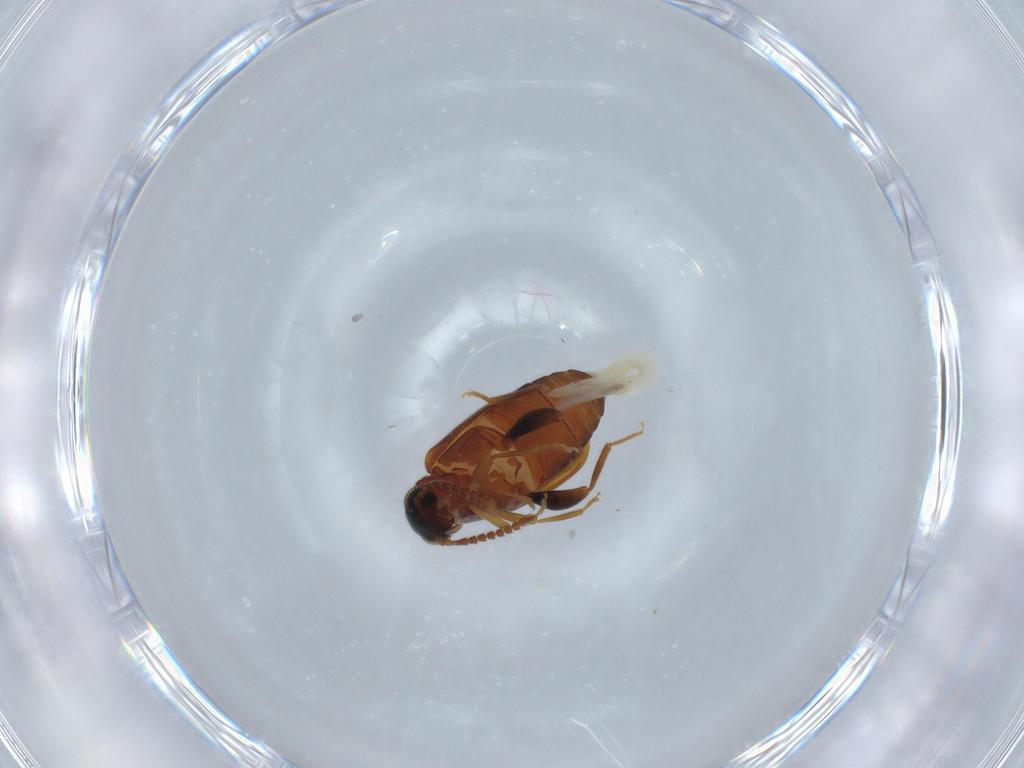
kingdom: Animalia
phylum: Arthropoda
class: Insecta
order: Coleoptera
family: Aderidae
